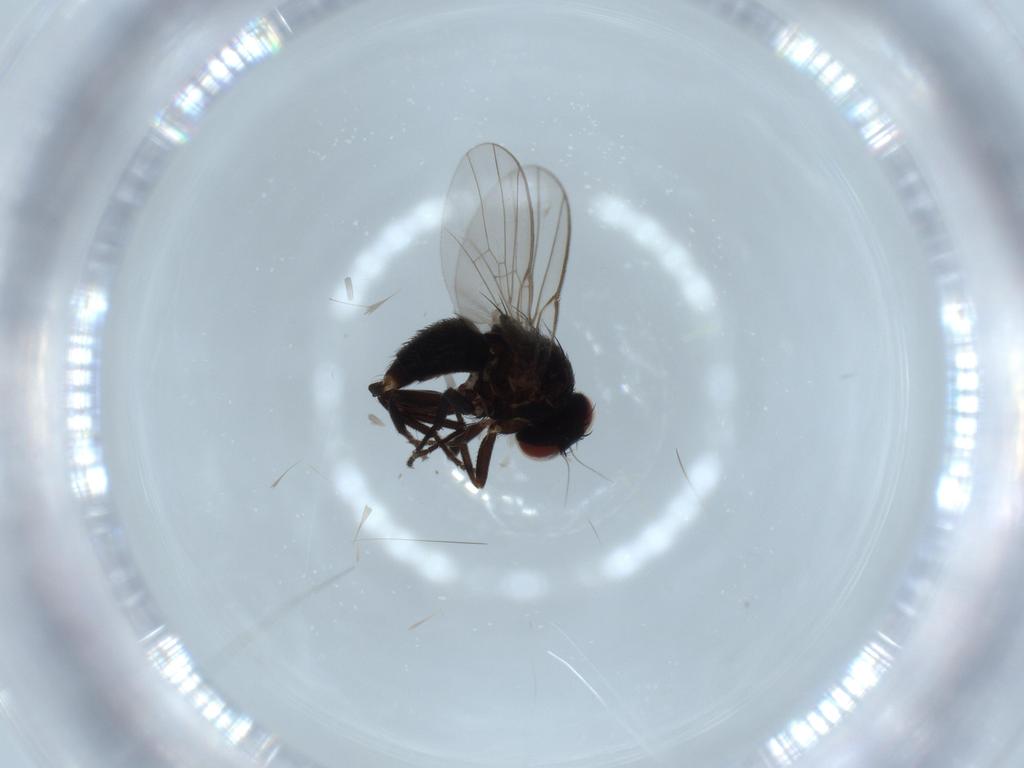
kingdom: Animalia
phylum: Arthropoda
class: Insecta
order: Diptera
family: Agromyzidae
